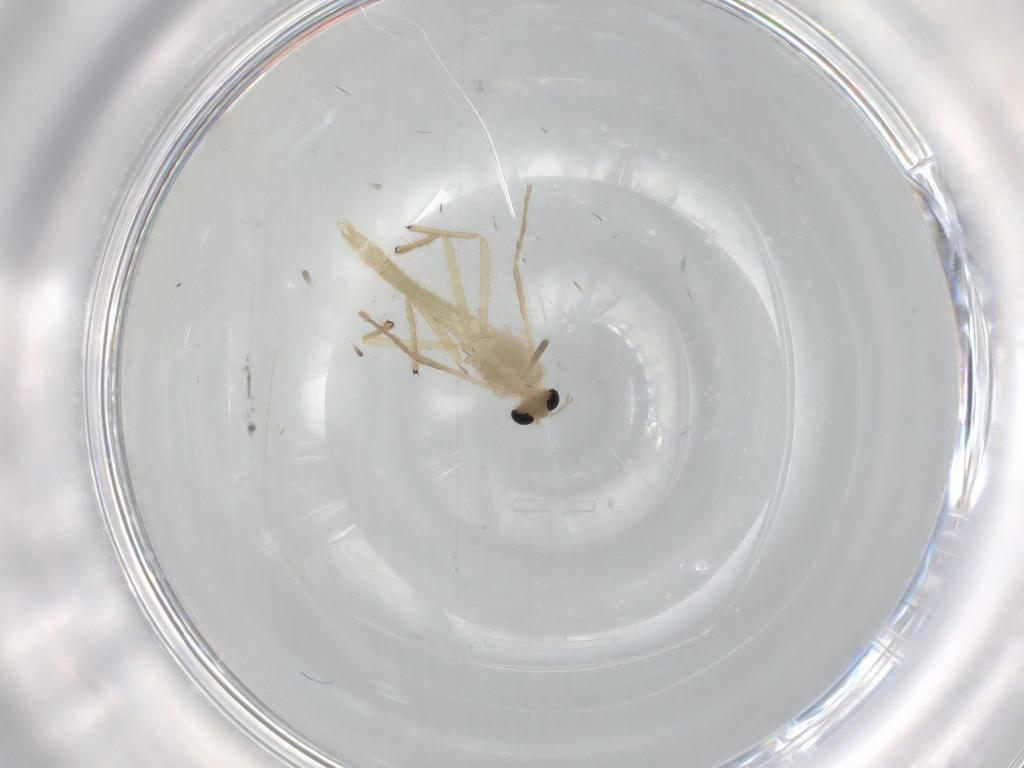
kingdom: Animalia
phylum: Arthropoda
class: Insecta
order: Diptera
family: Chironomidae
